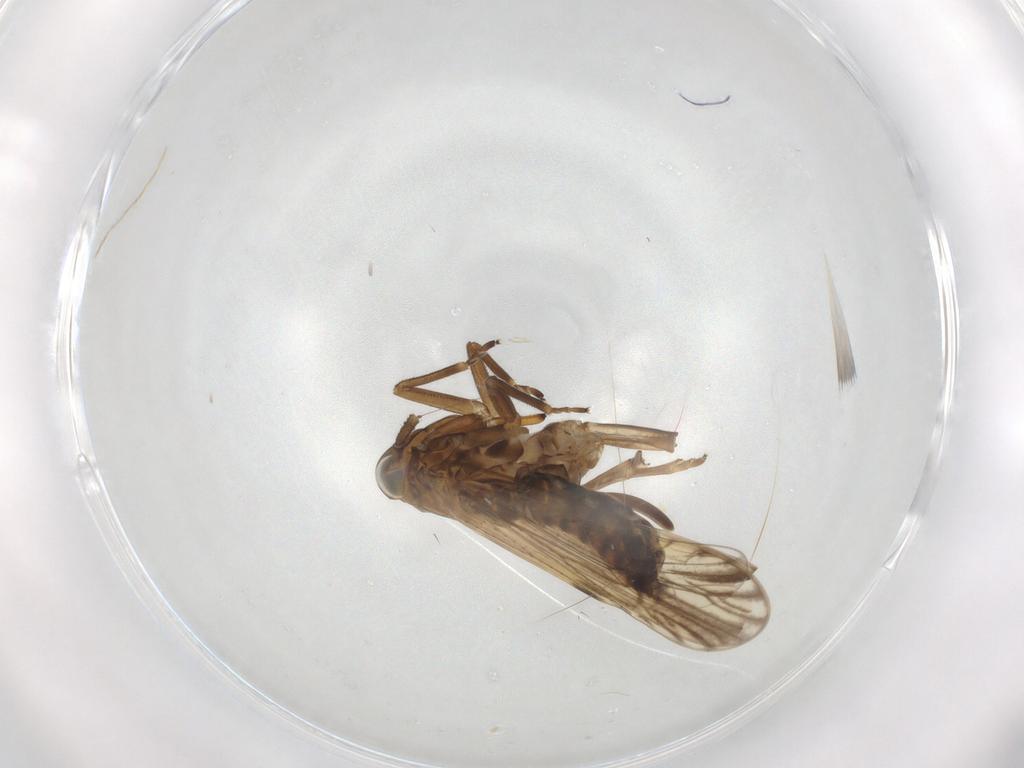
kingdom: Animalia
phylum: Arthropoda
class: Insecta
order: Hemiptera
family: Delphacidae
